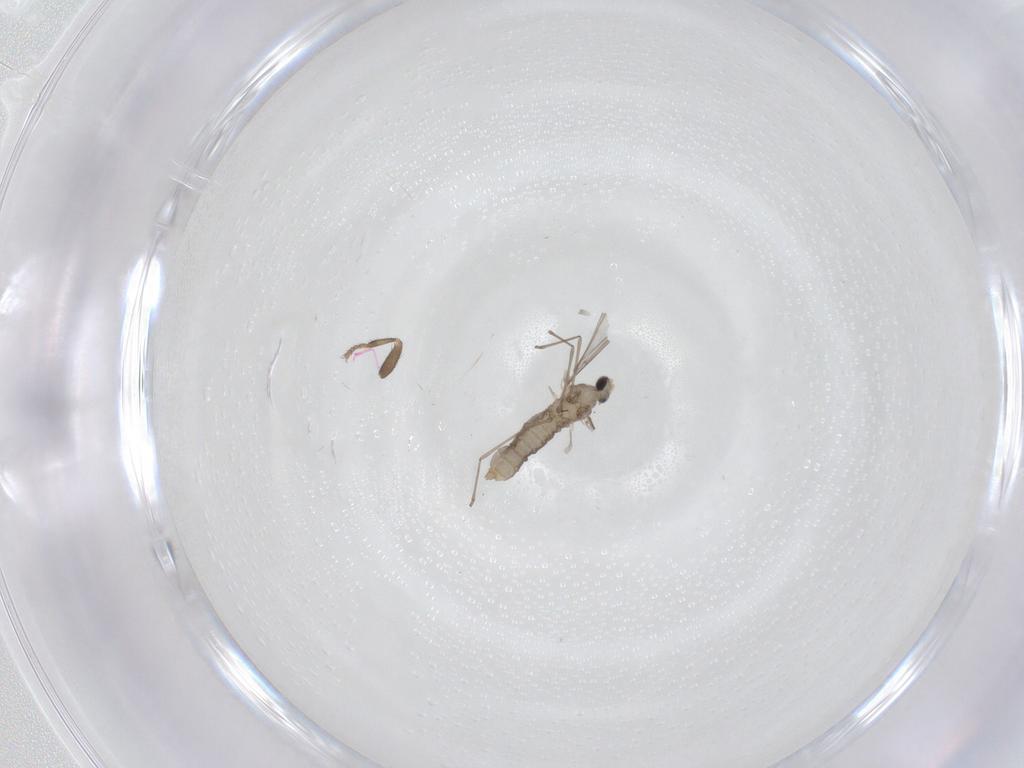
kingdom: Animalia
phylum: Arthropoda
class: Insecta
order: Diptera
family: Chironomidae
